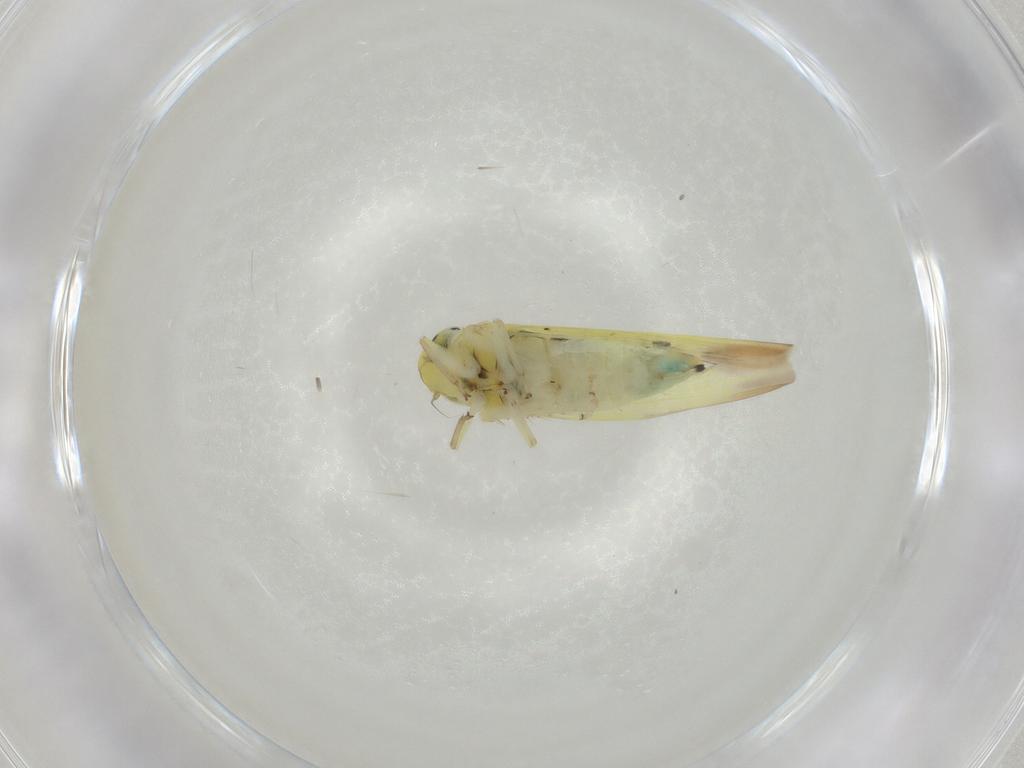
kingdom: Animalia
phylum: Arthropoda
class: Insecta
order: Hemiptera
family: Cicadellidae
